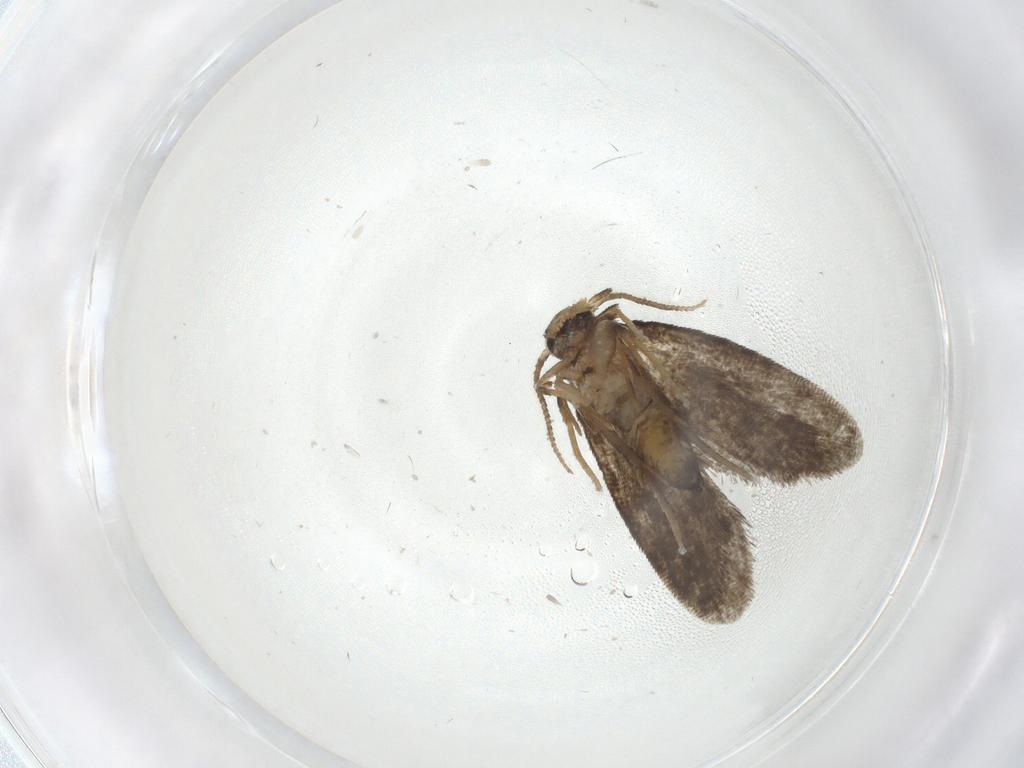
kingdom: Animalia
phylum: Arthropoda
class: Insecta
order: Lepidoptera
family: Psychidae
